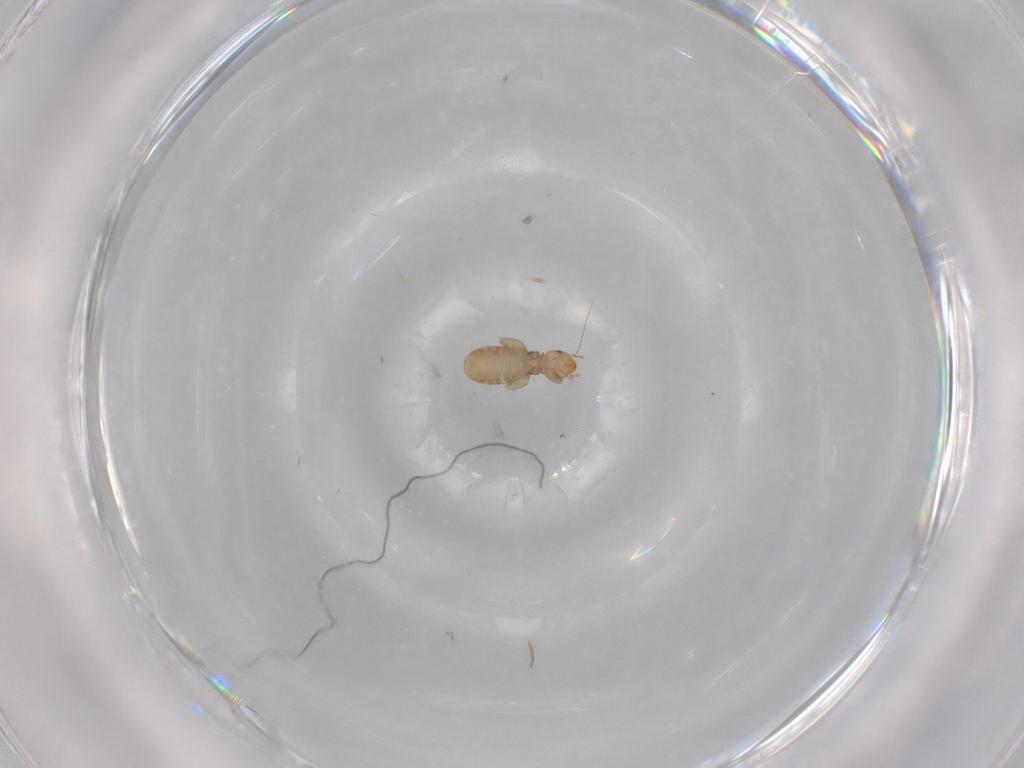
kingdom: Animalia
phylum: Arthropoda
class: Insecta
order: Psocodea
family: Liposcelididae
